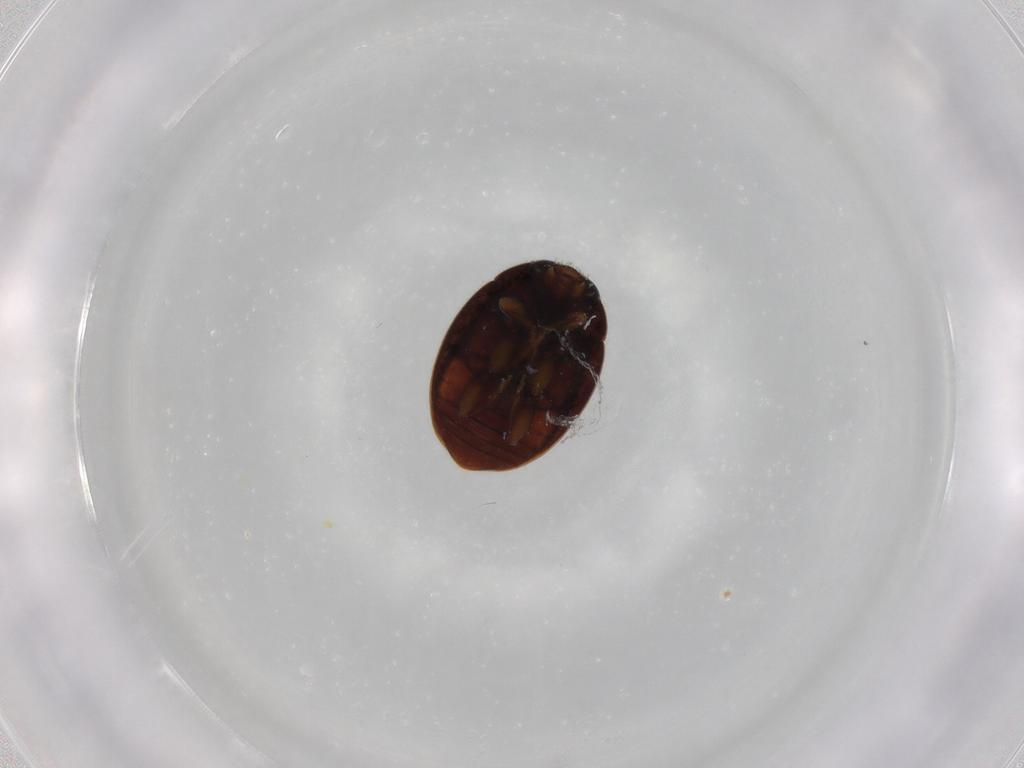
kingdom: Animalia
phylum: Arthropoda
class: Insecta
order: Coleoptera
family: Coccinellidae
